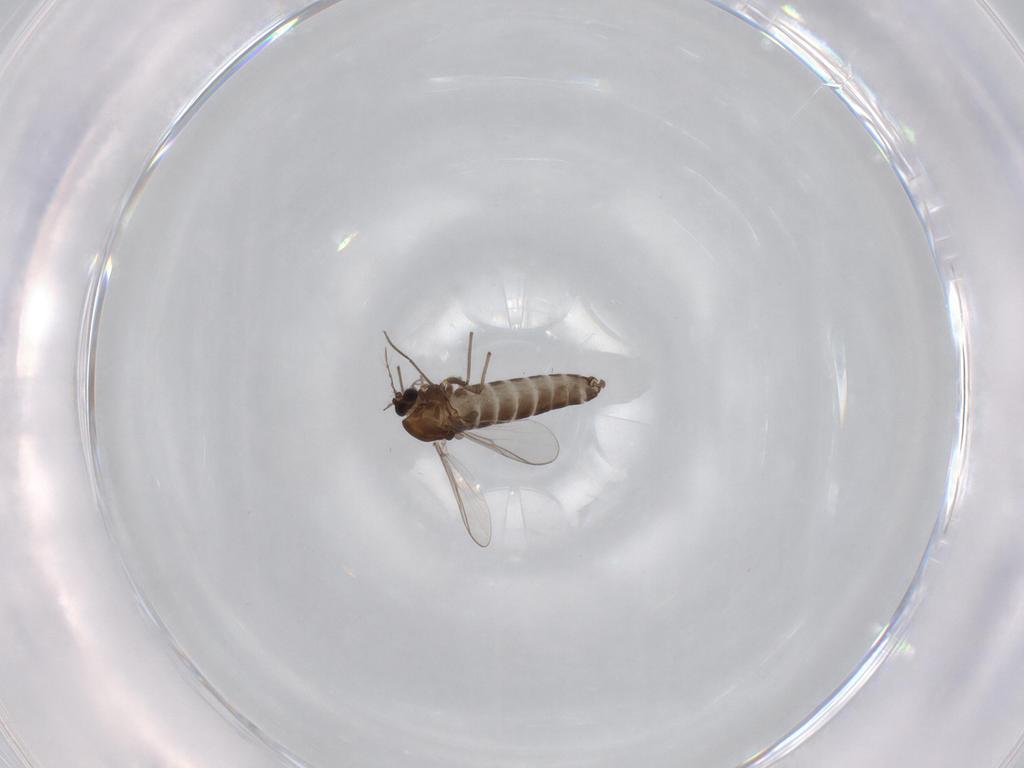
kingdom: Animalia
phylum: Arthropoda
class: Insecta
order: Diptera
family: Chironomidae
